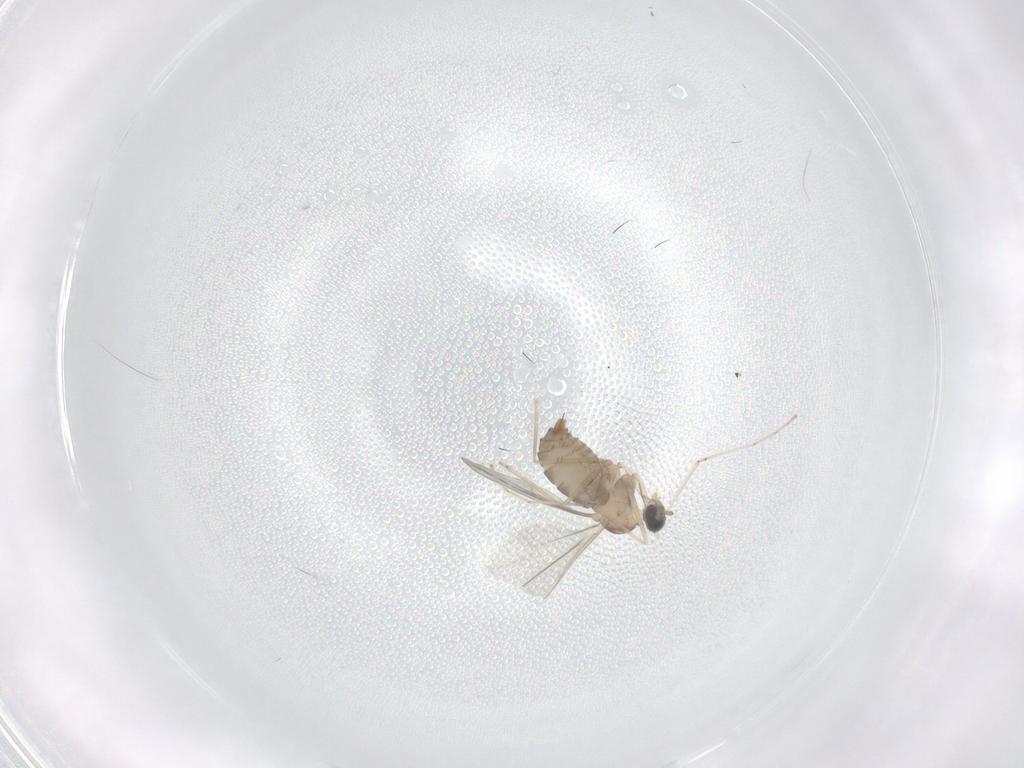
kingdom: Animalia
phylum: Arthropoda
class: Insecta
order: Diptera
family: Cecidomyiidae
